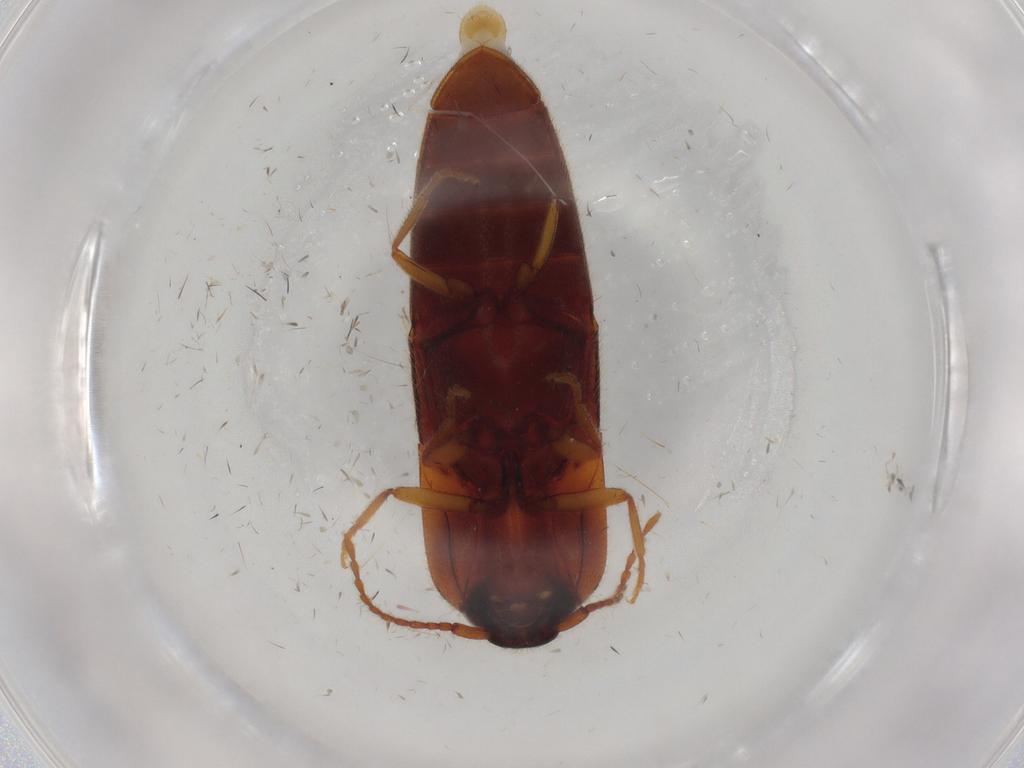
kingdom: Animalia
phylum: Arthropoda
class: Insecta
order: Coleoptera
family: Elateridae
